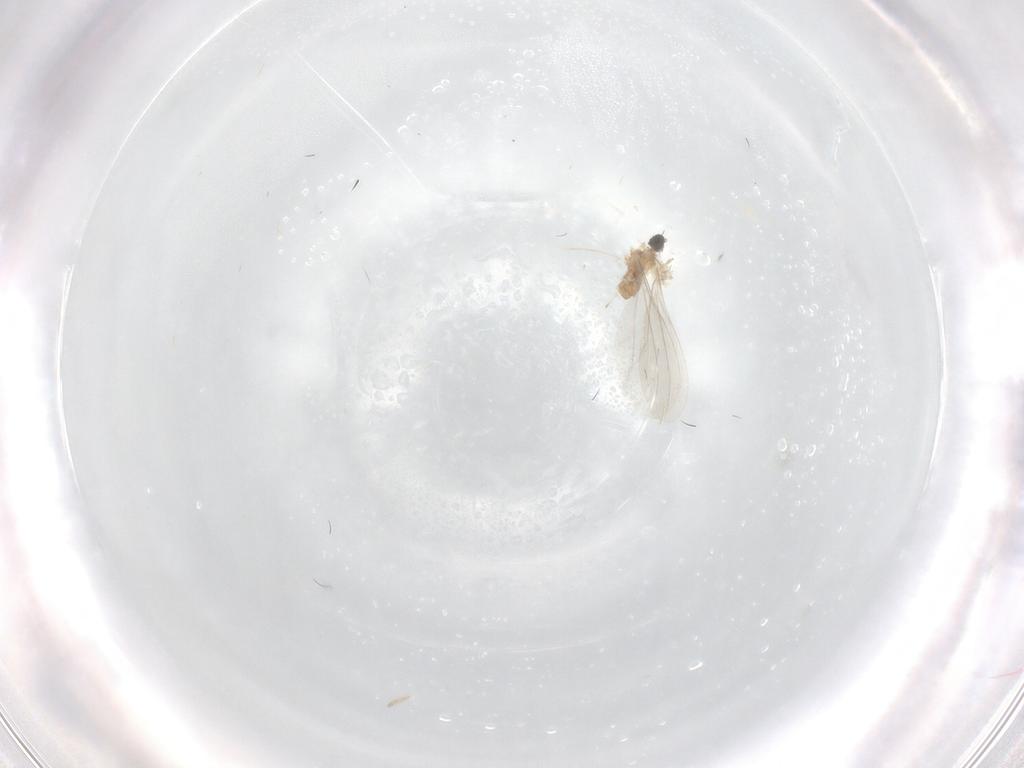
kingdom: Animalia
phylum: Arthropoda
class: Insecta
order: Diptera
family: Cecidomyiidae
